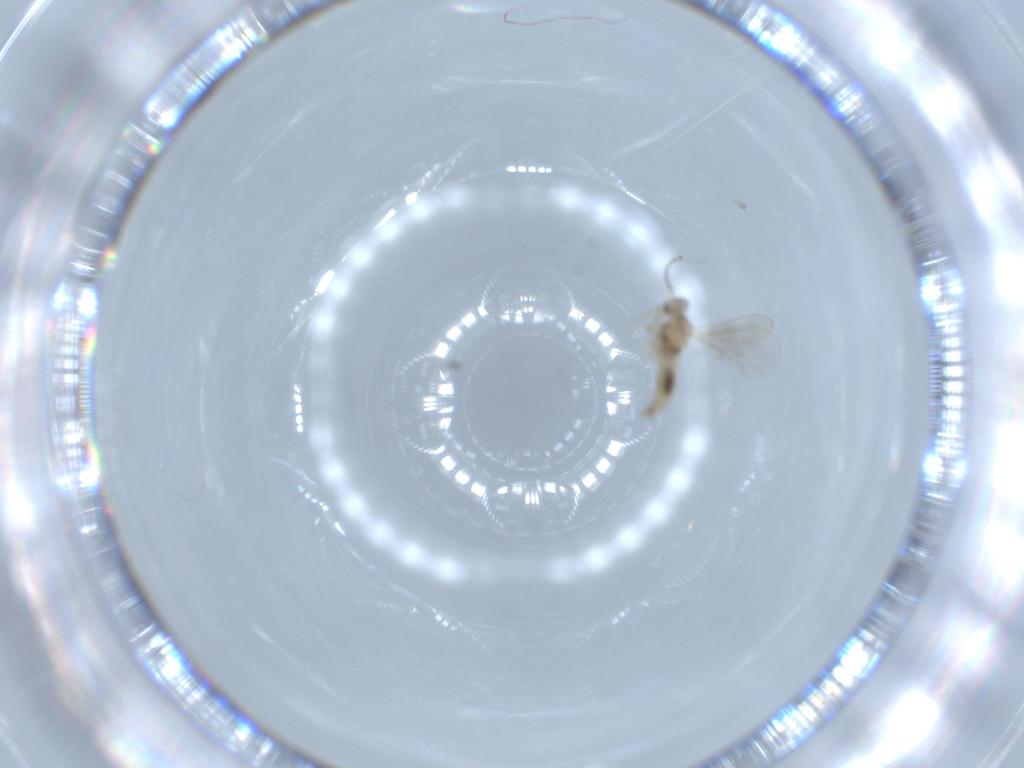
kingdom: Animalia
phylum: Arthropoda
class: Insecta
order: Diptera
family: Cecidomyiidae
